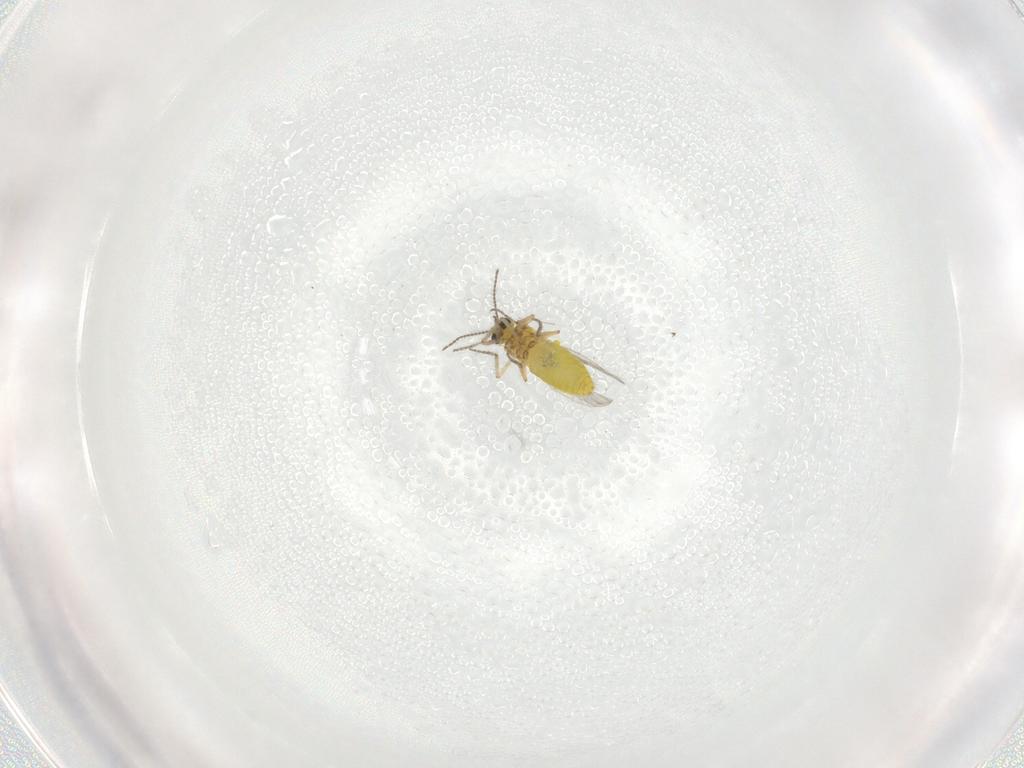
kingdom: Animalia
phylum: Arthropoda
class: Insecta
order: Diptera
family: Ceratopogonidae
